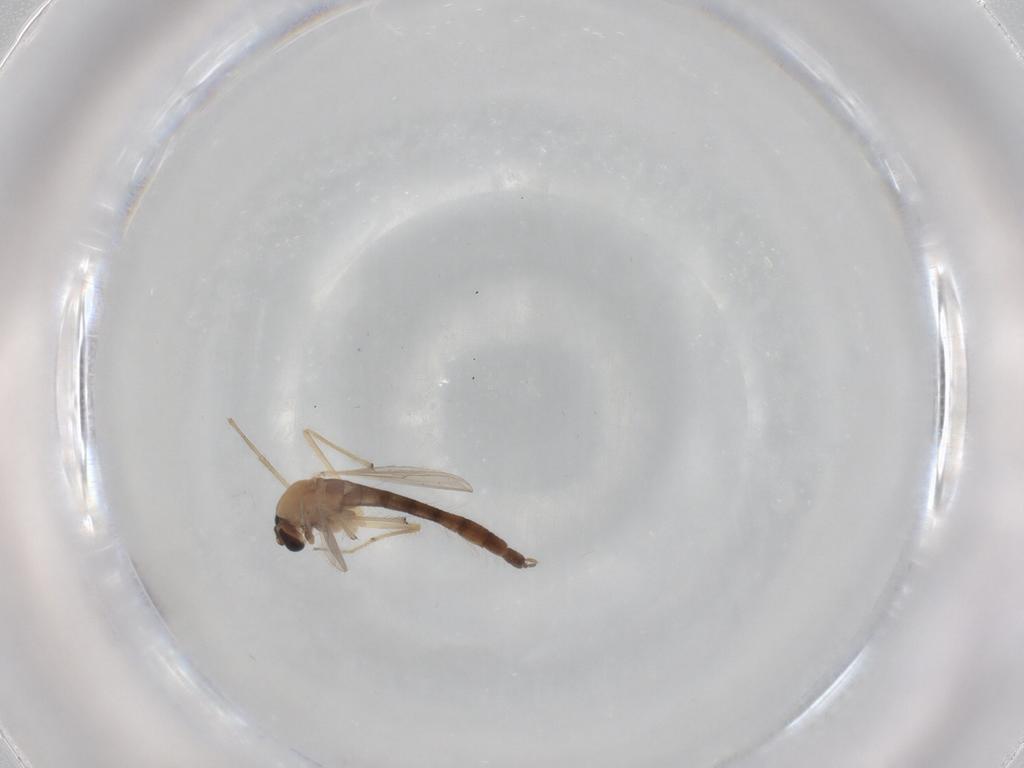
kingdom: Animalia
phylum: Arthropoda
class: Insecta
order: Diptera
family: Chironomidae
